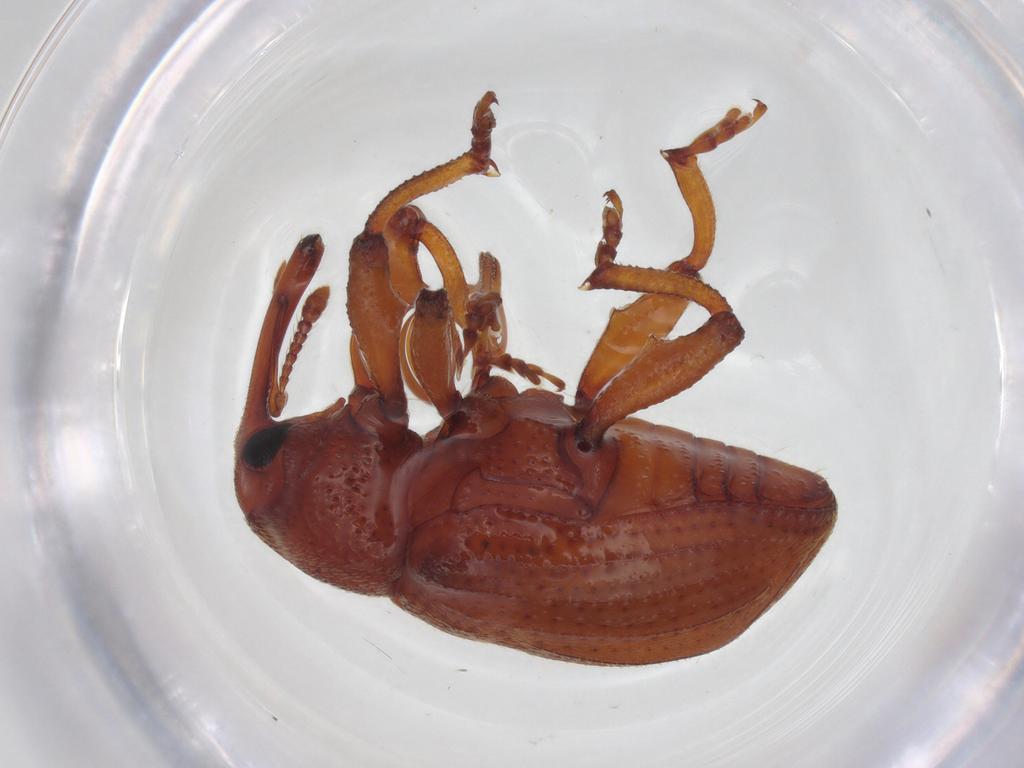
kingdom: Animalia
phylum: Arthropoda
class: Insecta
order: Coleoptera
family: Curculionidae
